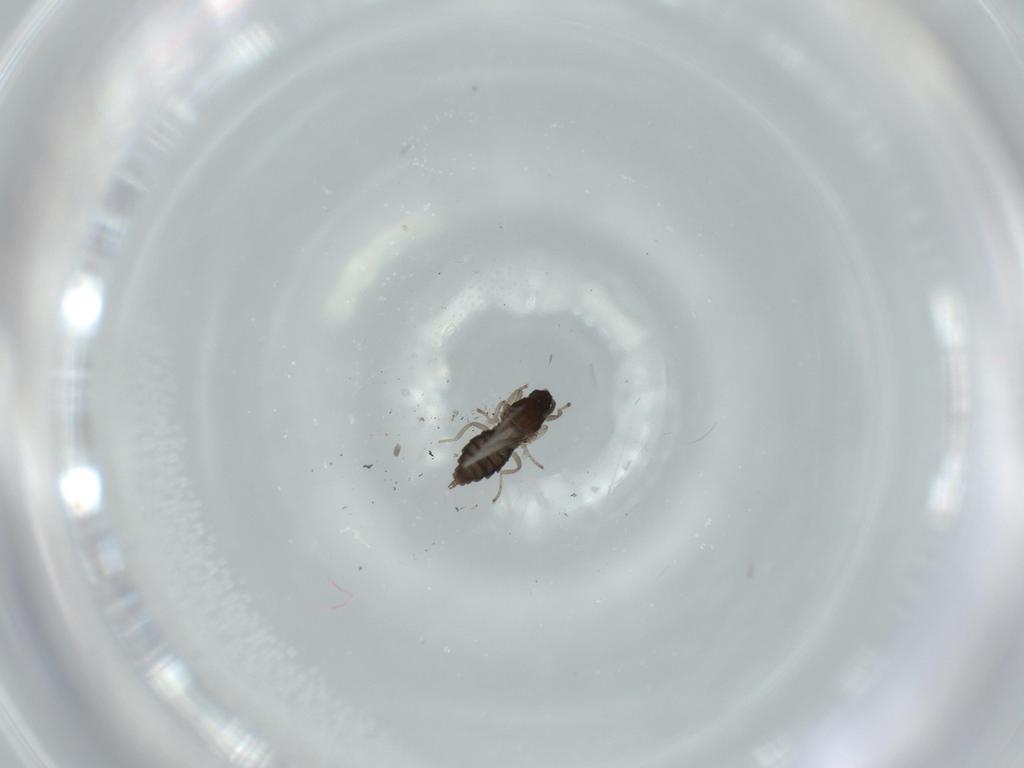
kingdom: Animalia
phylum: Arthropoda
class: Insecta
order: Diptera
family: Cecidomyiidae
